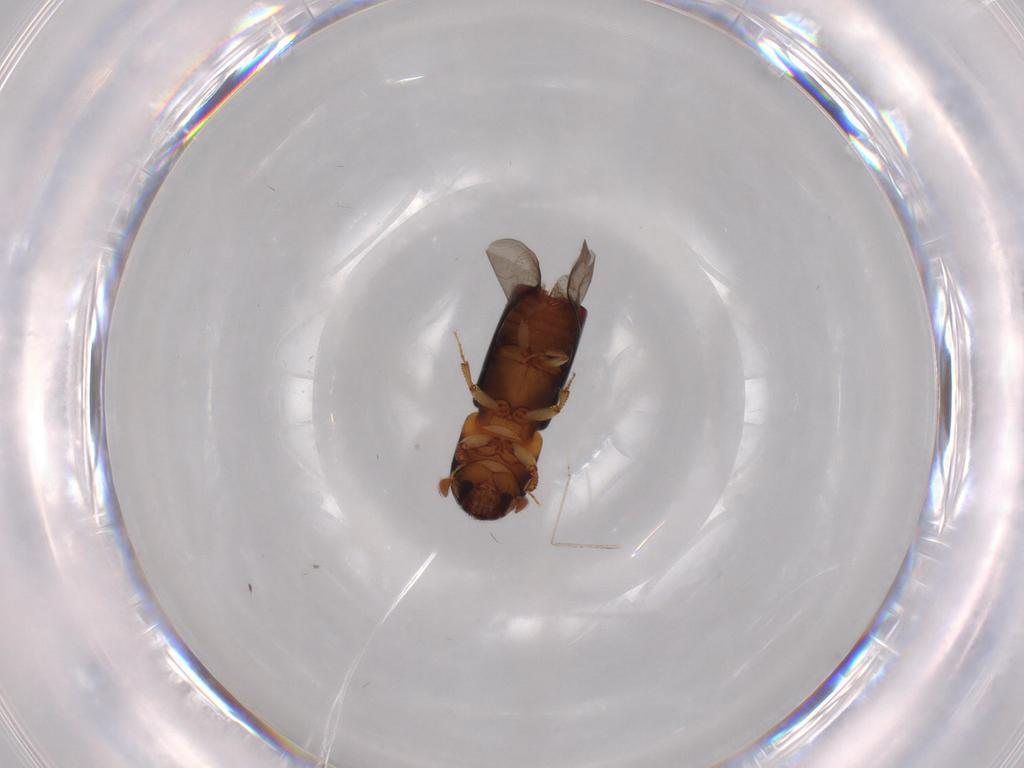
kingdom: Animalia
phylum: Arthropoda
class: Insecta
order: Coleoptera
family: Curculionidae
